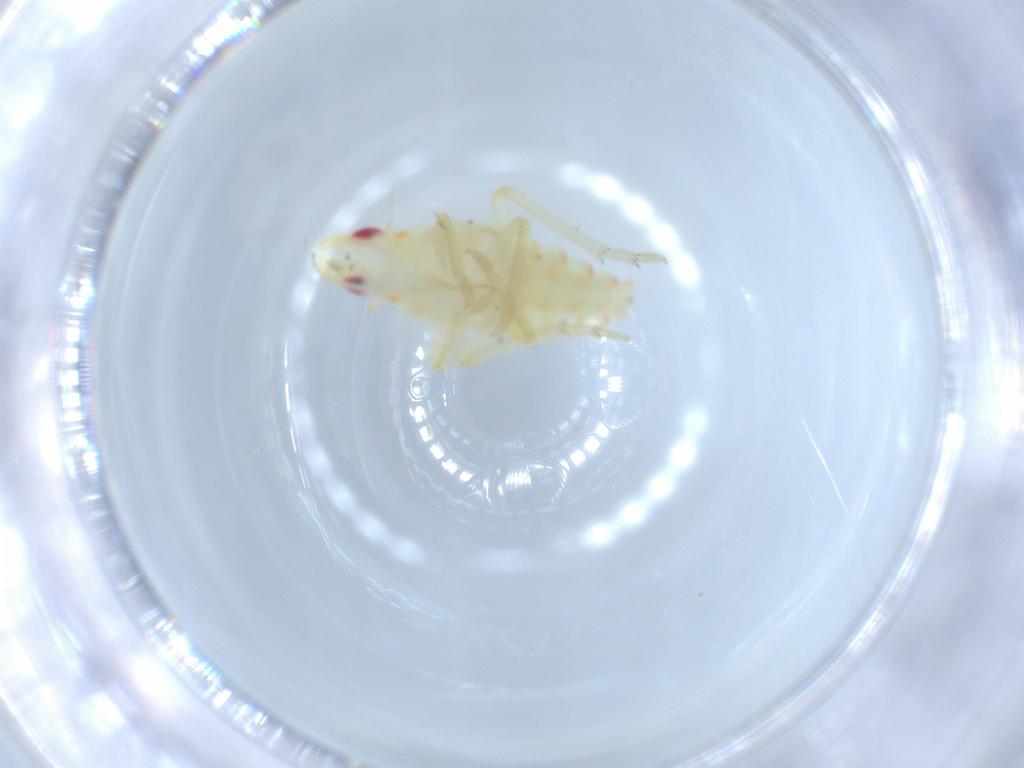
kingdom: Animalia
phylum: Arthropoda
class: Insecta
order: Hemiptera
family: Tropiduchidae
